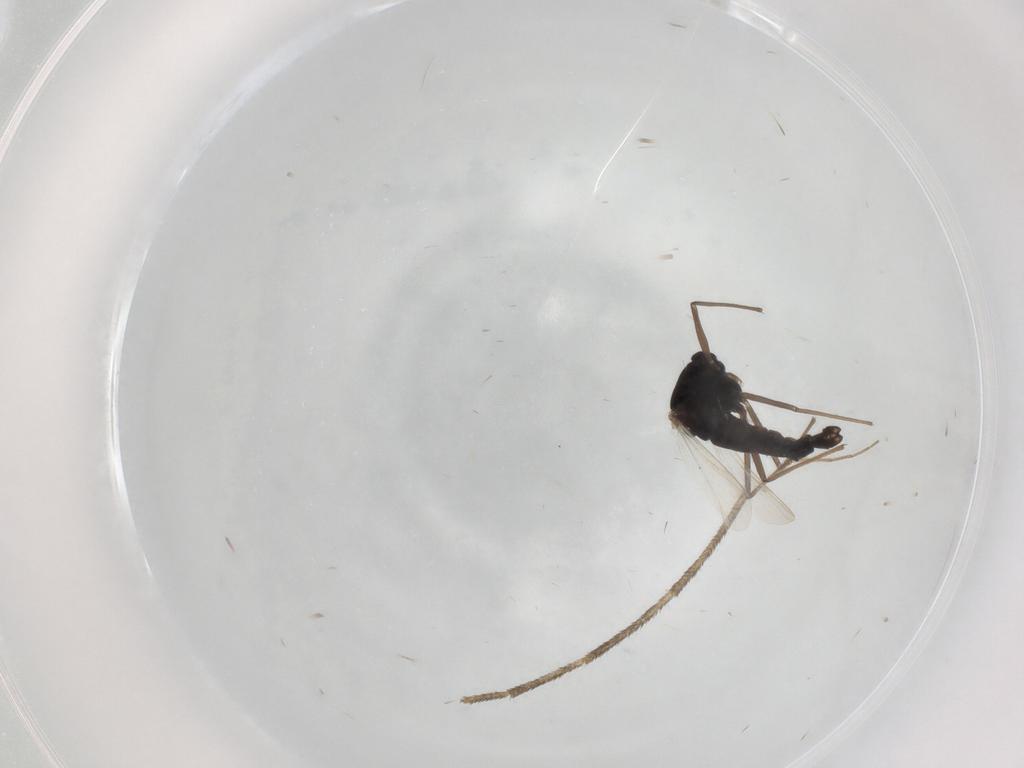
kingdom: Animalia
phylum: Arthropoda
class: Insecta
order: Diptera
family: Chironomidae
